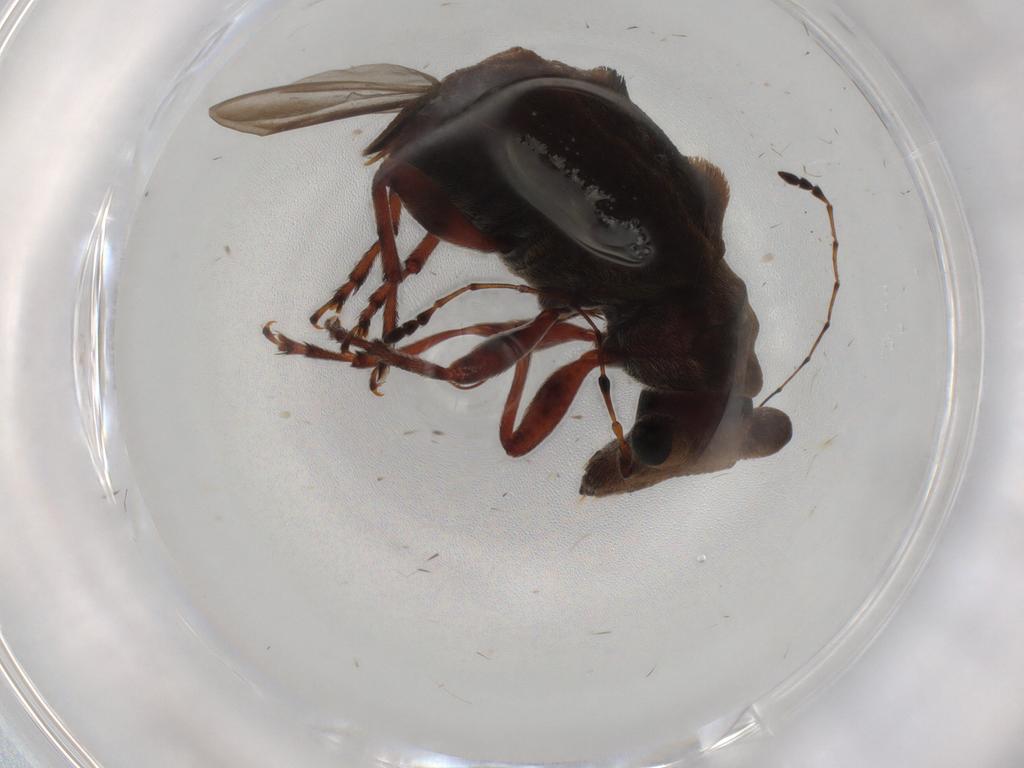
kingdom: Animalia
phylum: Arthropoda
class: Insecta
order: Coleoptera
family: Anthribidae
